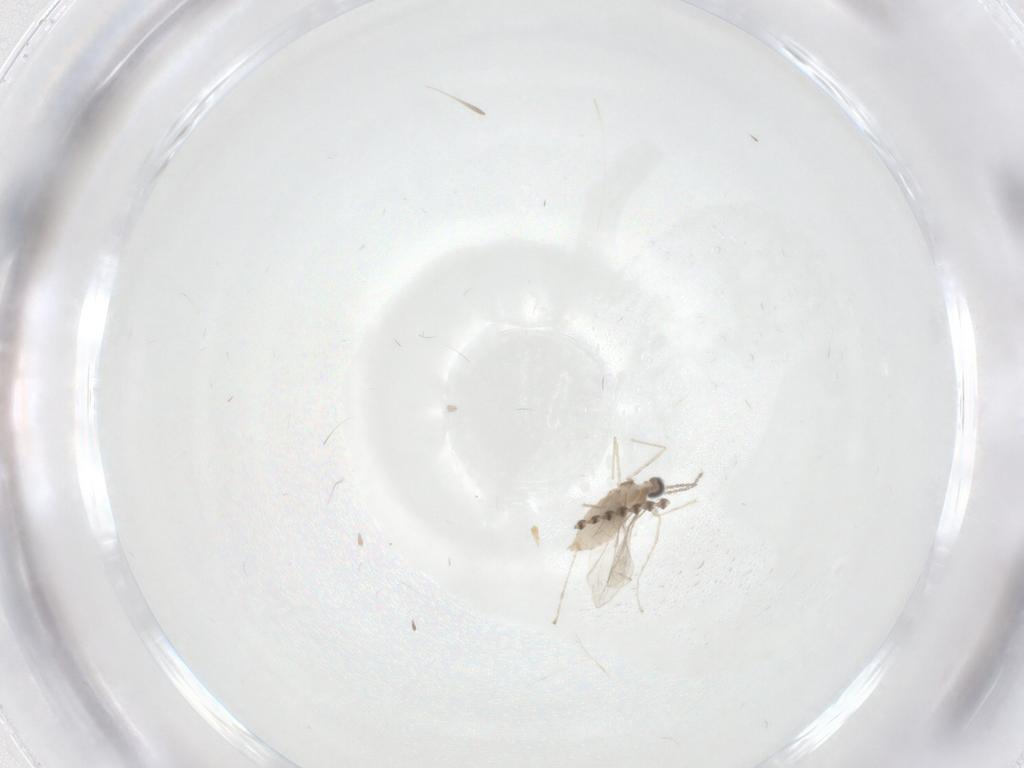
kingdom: Animalia
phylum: Arthropoda
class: Insecta
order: Diptera
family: Psychodidae
